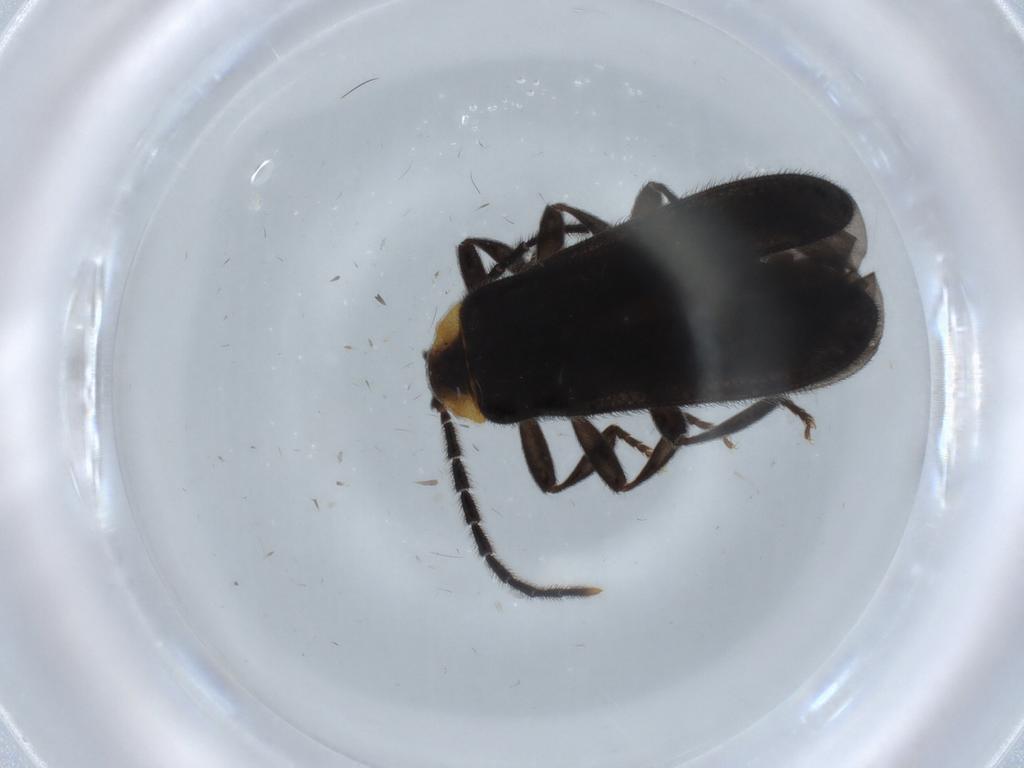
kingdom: Animalia
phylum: Arthropoda
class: Insecta
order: Coleoptera
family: Lycidae
